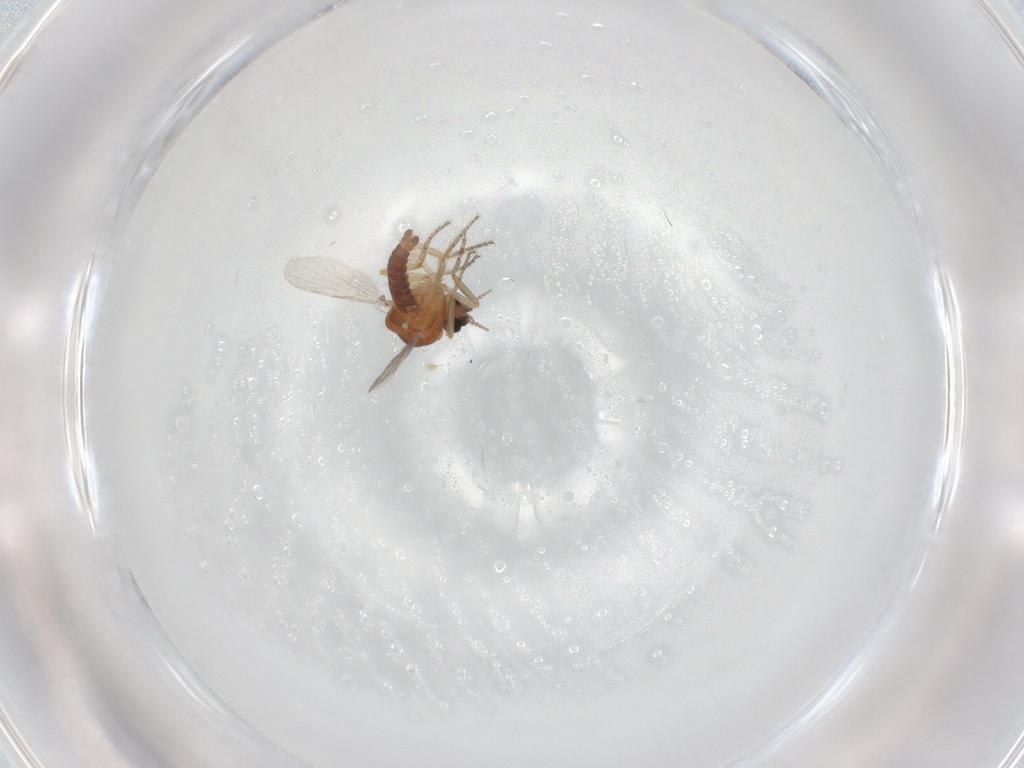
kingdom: Animalia
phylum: Arthropoda
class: Insecta
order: Diptera
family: Ceratopogonidae
